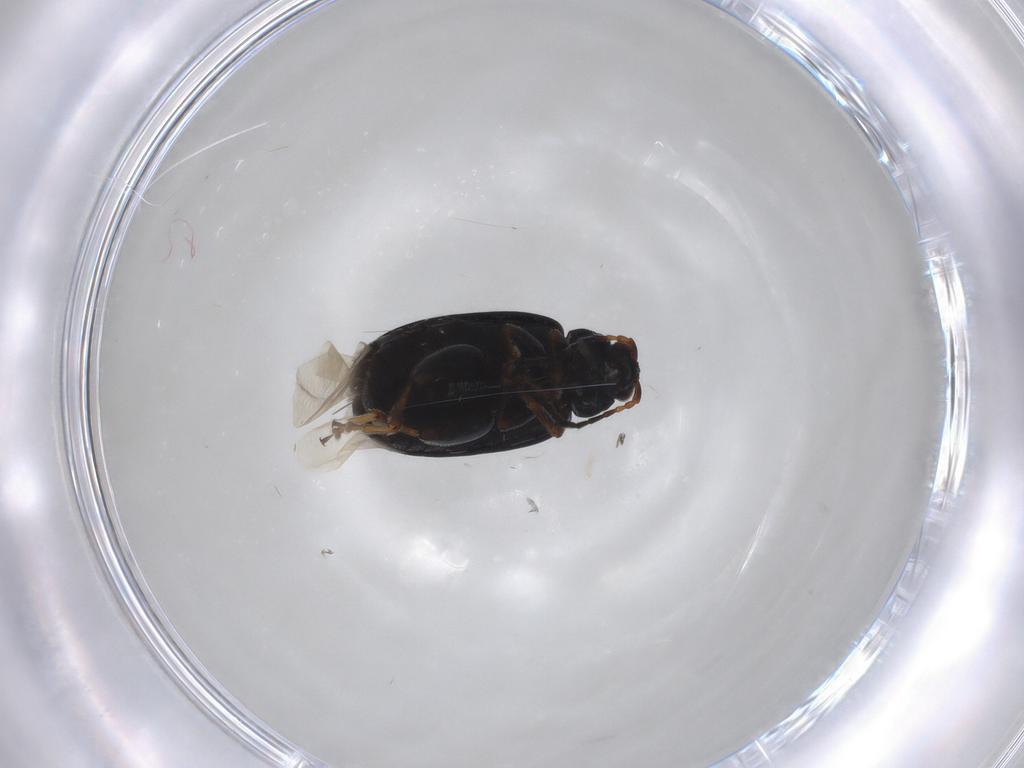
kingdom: Animalia
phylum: Arthropoda
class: Insecta
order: Coleoptera
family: Chrysomelidae
